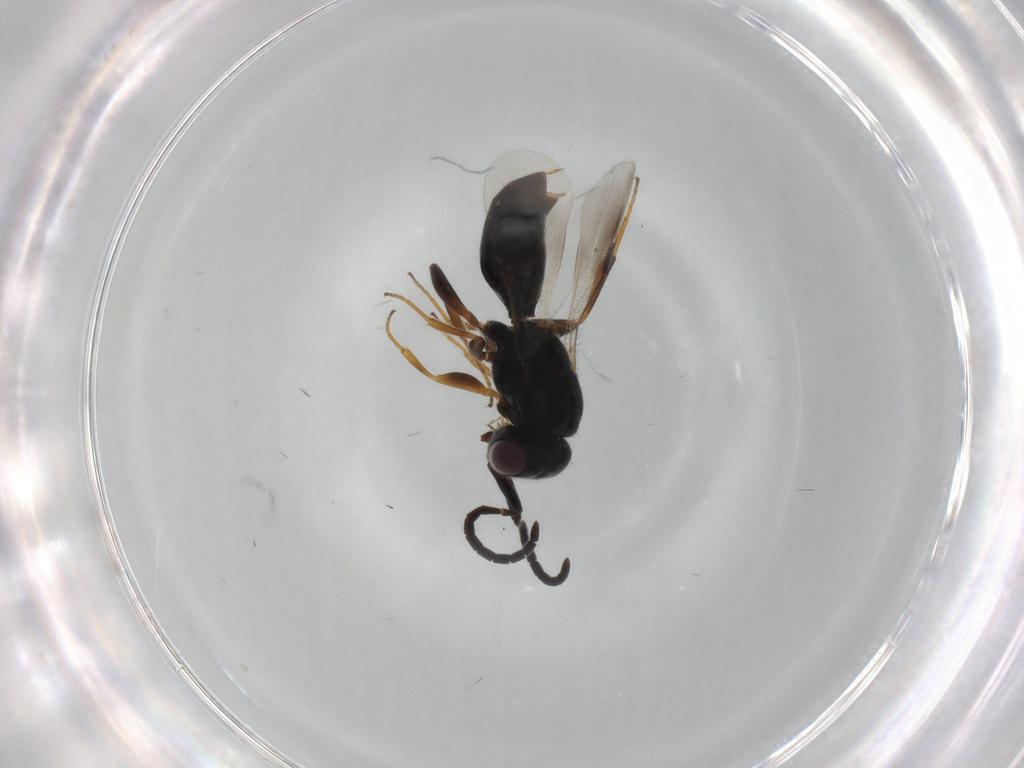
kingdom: Animalia
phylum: Arthropoda
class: Insecta
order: Hymenoptera
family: Megaspilidae
